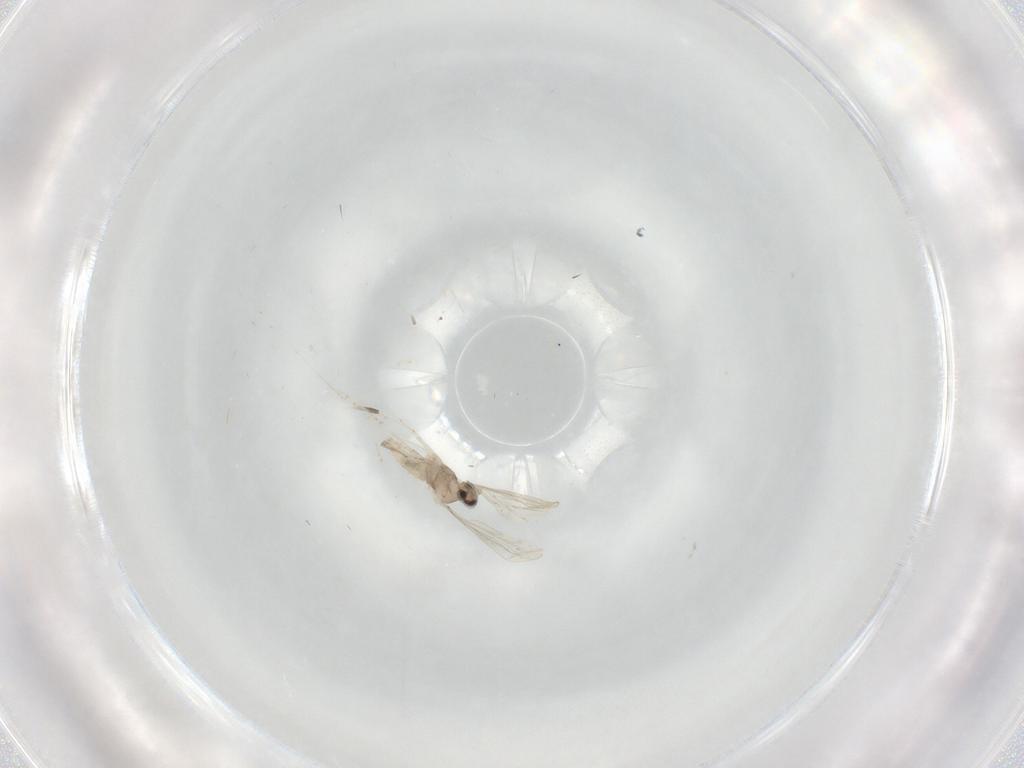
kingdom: Animalia
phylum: Arthropoda
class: Insecta
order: Diptera
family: Cecidomyiidae
